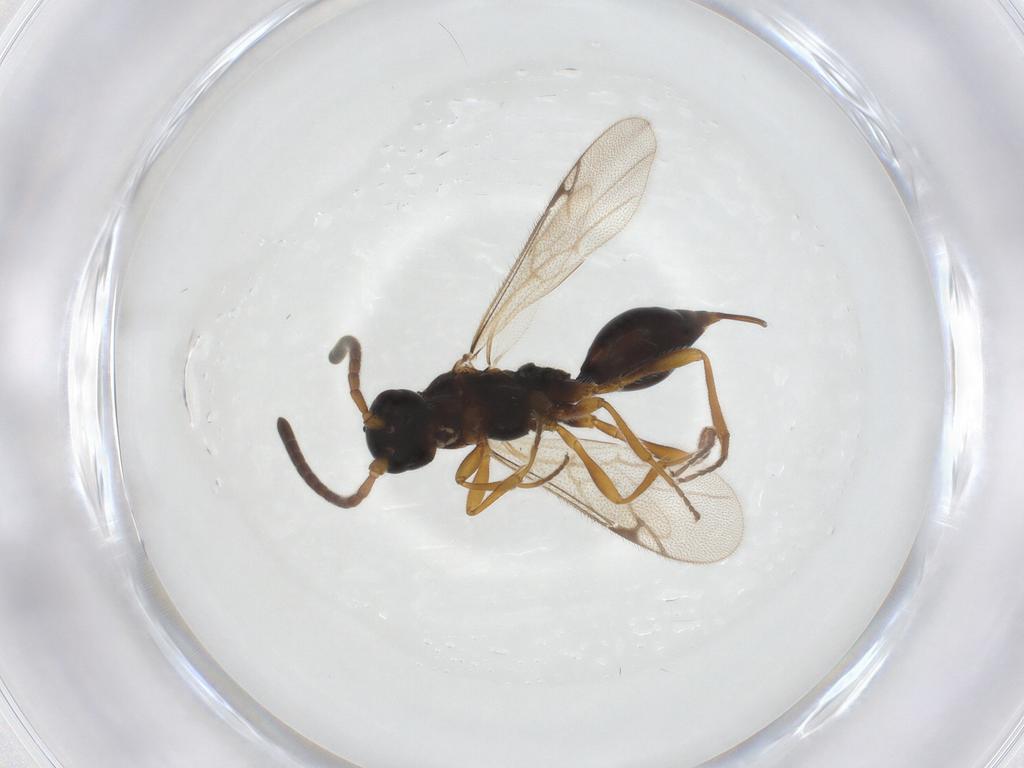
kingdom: Animalia
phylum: Arthropoda
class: Insecta
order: Hymenoptera
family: Proctotrupidae
